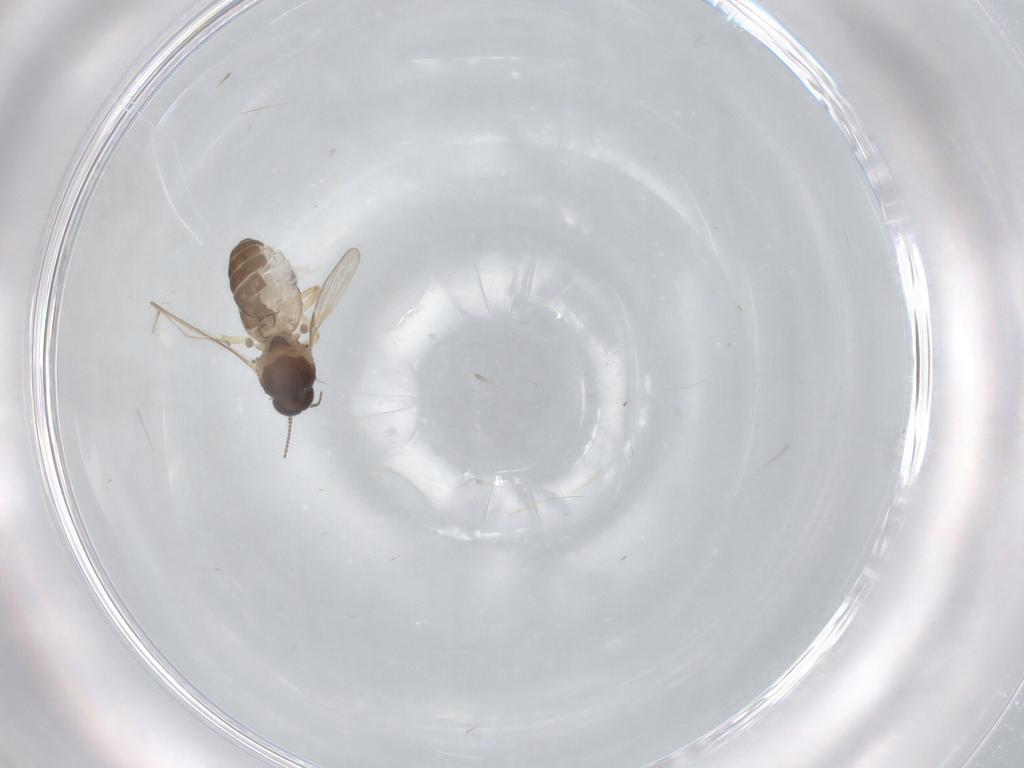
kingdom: Animalia
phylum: Arthropoda
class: Insecta
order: Diptera
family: Ceratopogonidae
